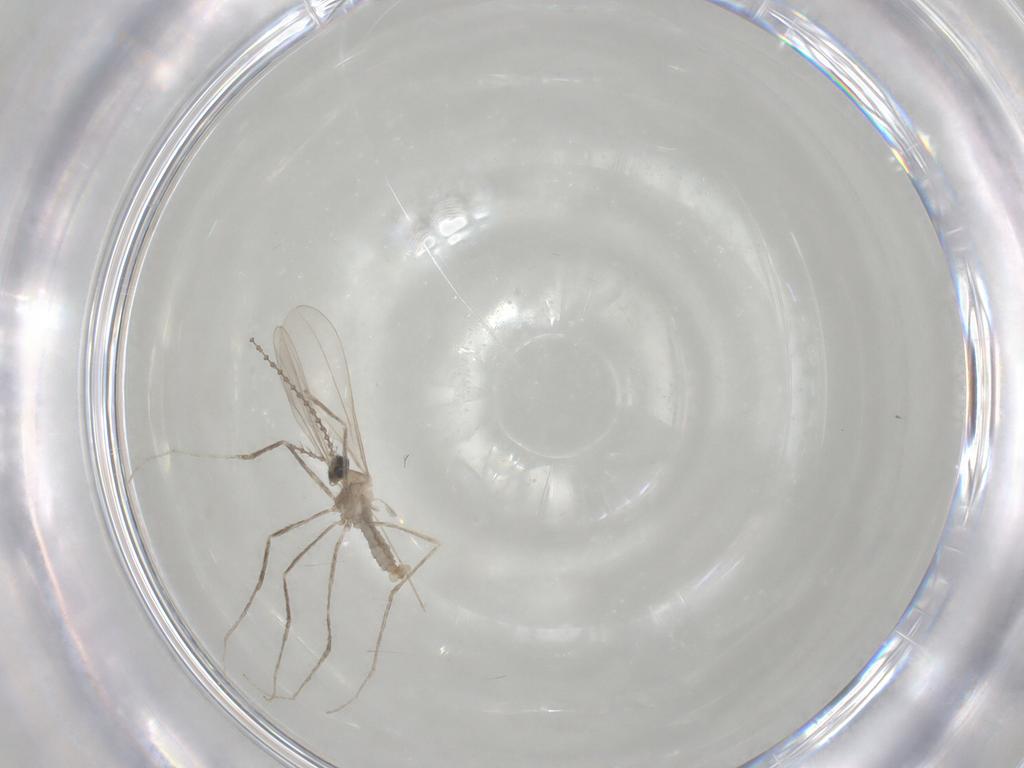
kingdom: Animalia
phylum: Arthropoda
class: Insecta
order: Diptera
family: Cecidomyiidae
